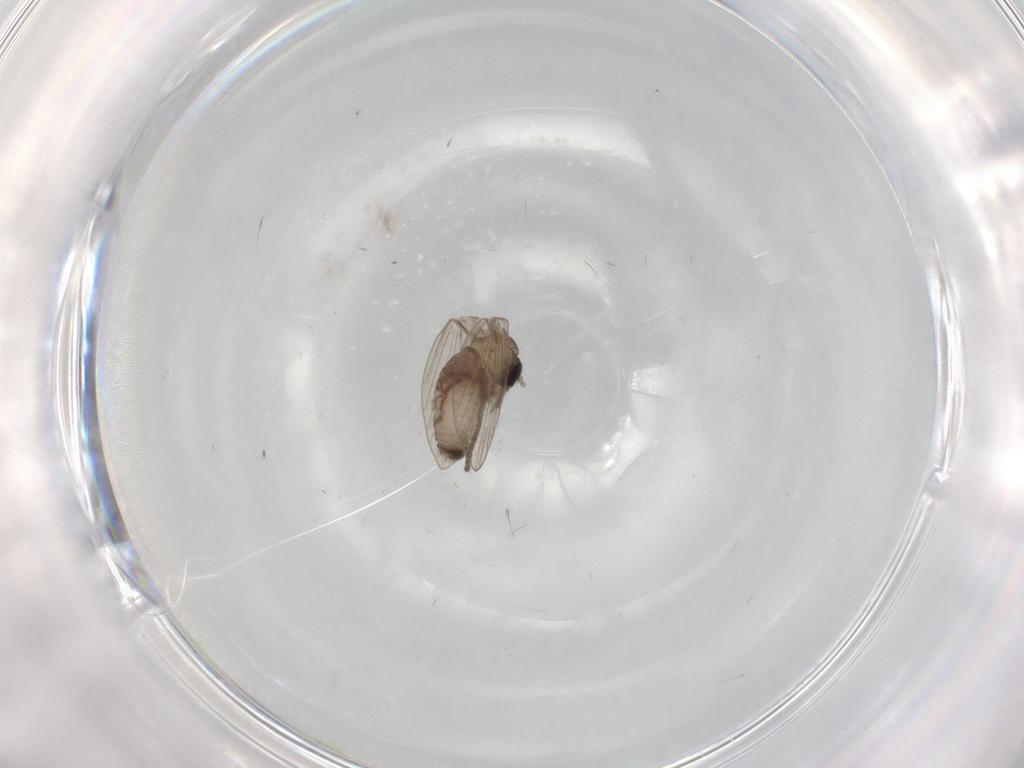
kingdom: Animalia
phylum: Arthropoda
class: Insecta
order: Diptera
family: Psychodidae
